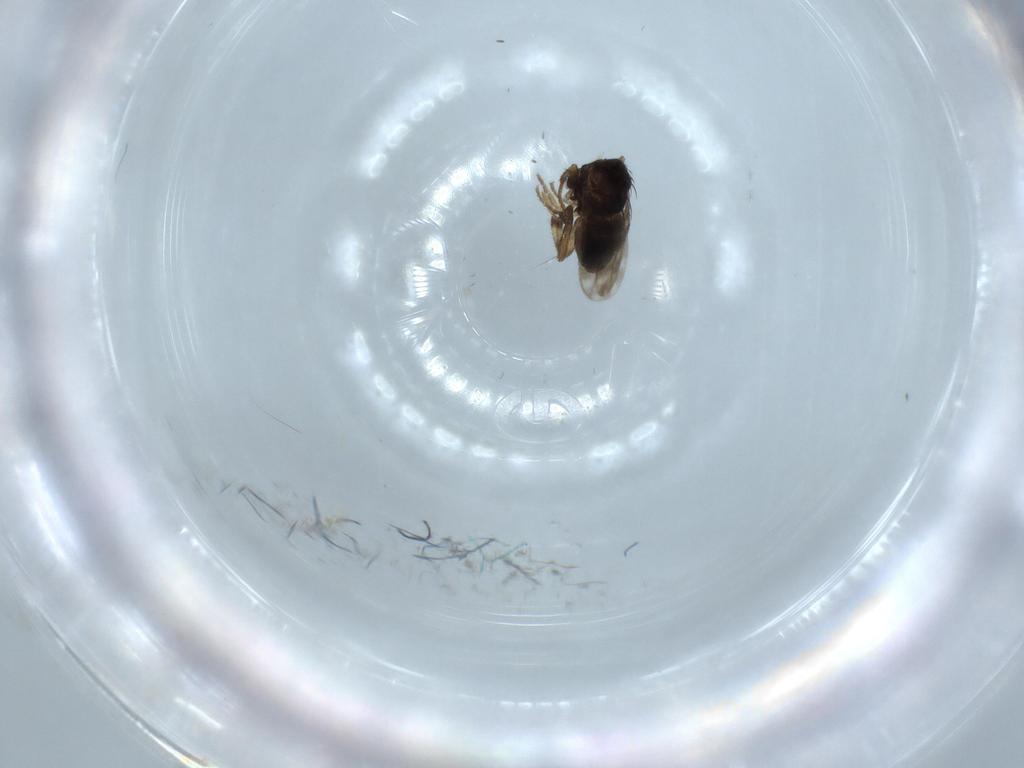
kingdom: Animalia
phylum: Arthropoda
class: Insecta
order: Diptera
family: Sphaeroceridae
